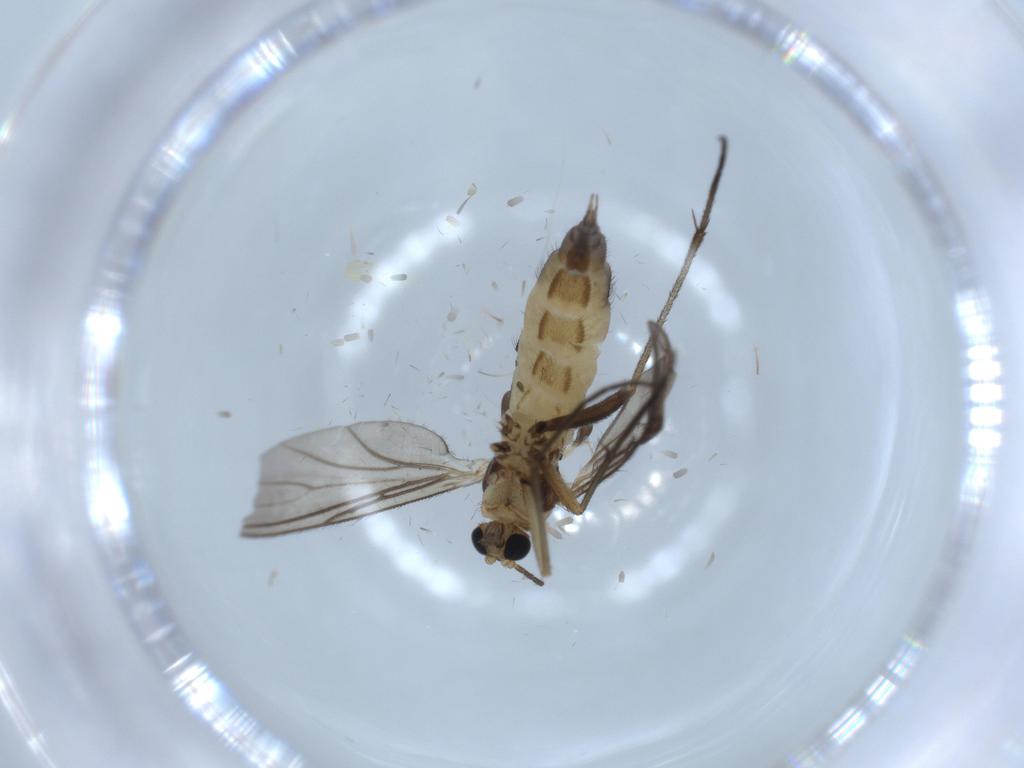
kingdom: Animalia
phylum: Arthropoda
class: Insecta
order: Diptera
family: Sciaridae
